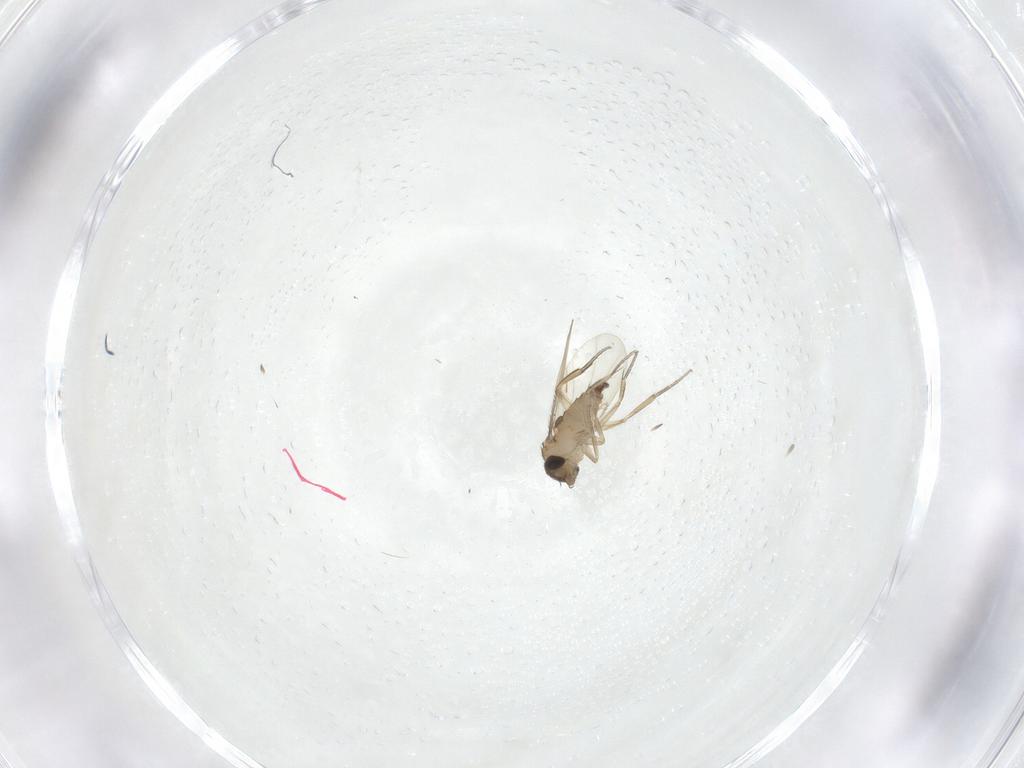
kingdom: Animalia
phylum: Arthropoda
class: Insecta
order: Diptera
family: Phoridae
